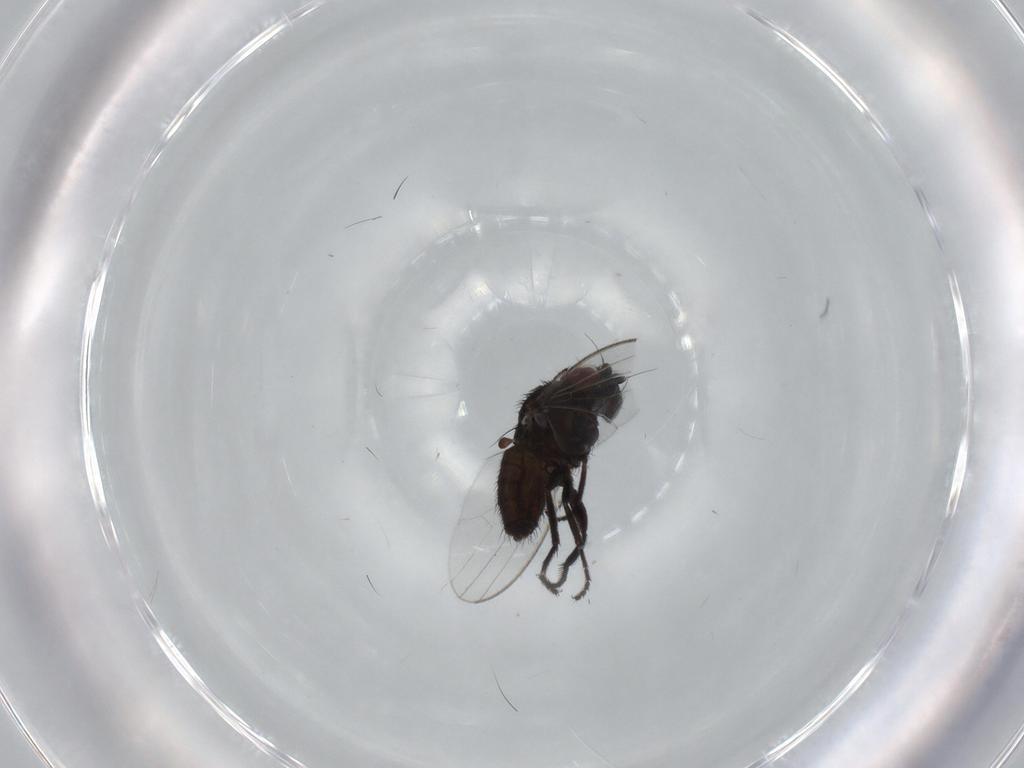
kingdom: Animalia
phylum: Arthropoda
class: Insecta
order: Diptera
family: Milichiidae
